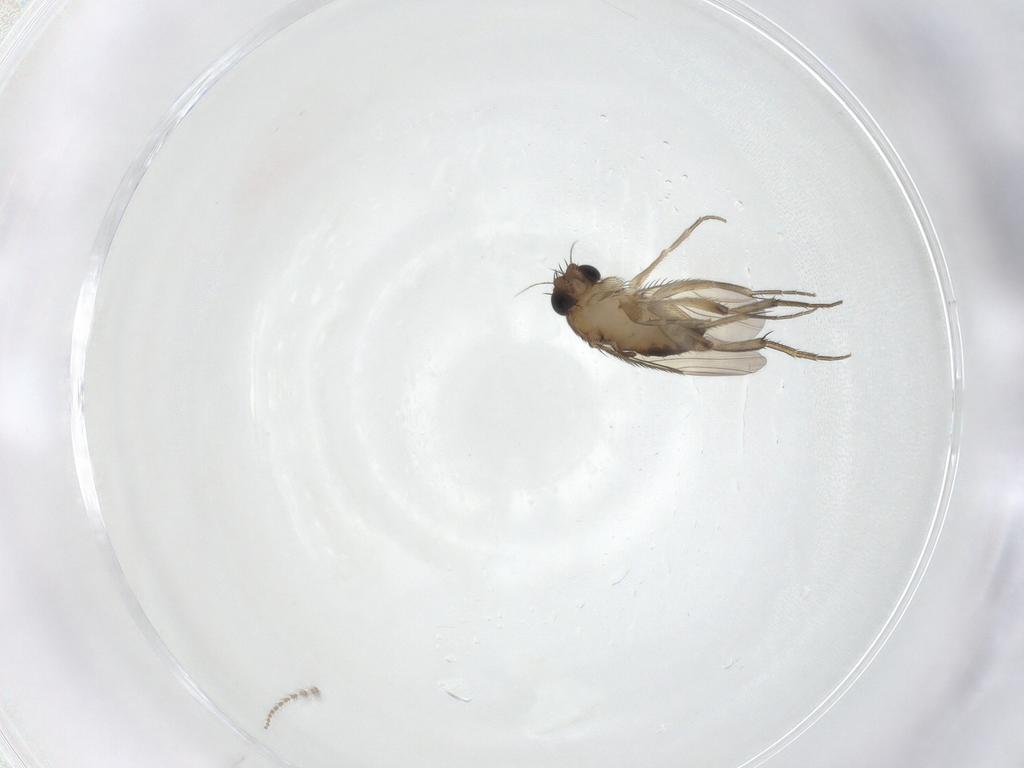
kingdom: Animalia
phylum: Arthropoda
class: Insecta
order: Diptera
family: Phoridae
